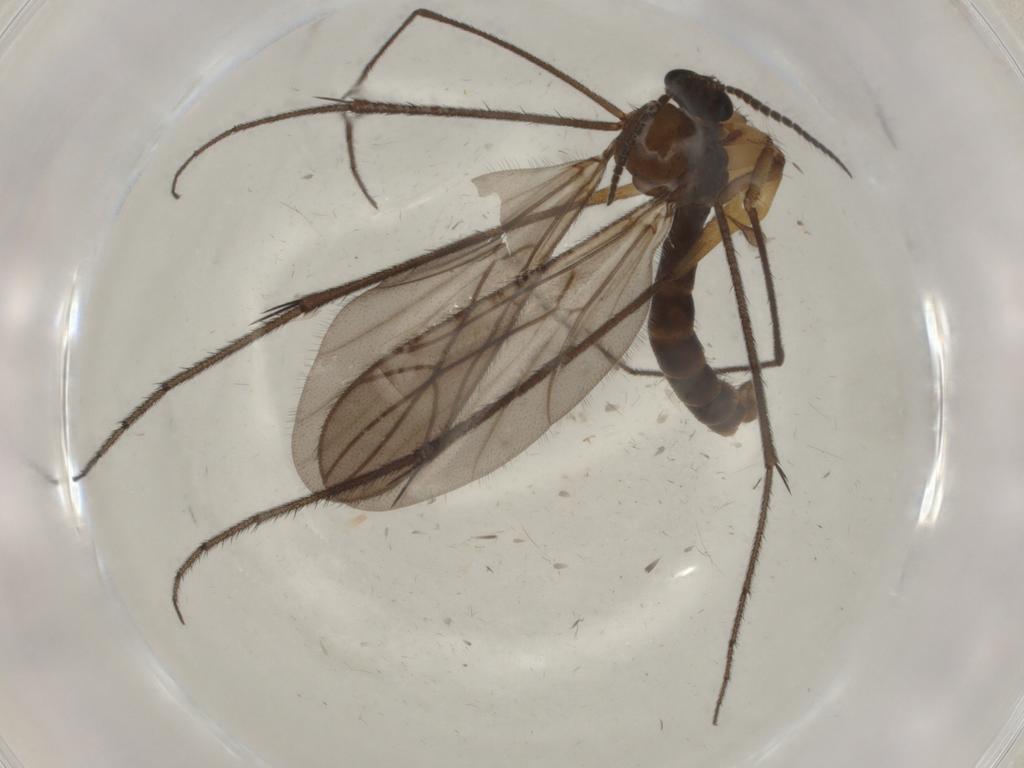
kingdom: Animalia
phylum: Arthropoda
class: Insecta
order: Diptera
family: Ditomyiidae
